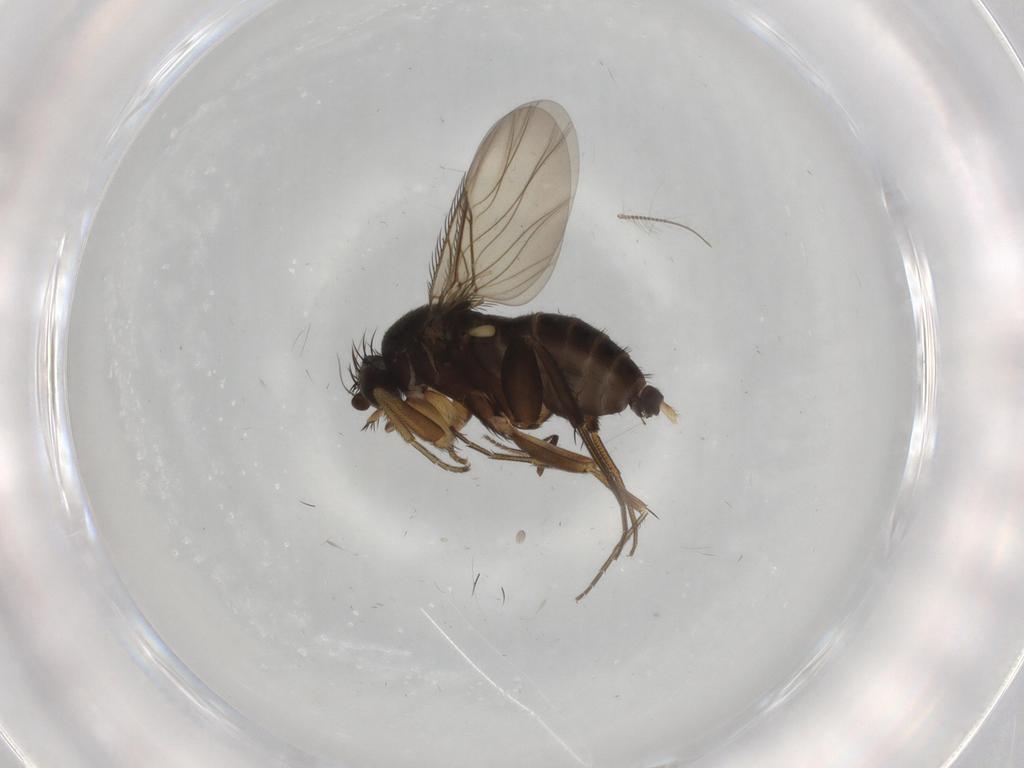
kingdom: Animalia
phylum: Arthropoda
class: Insecta
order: Diptera
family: Phoridae
